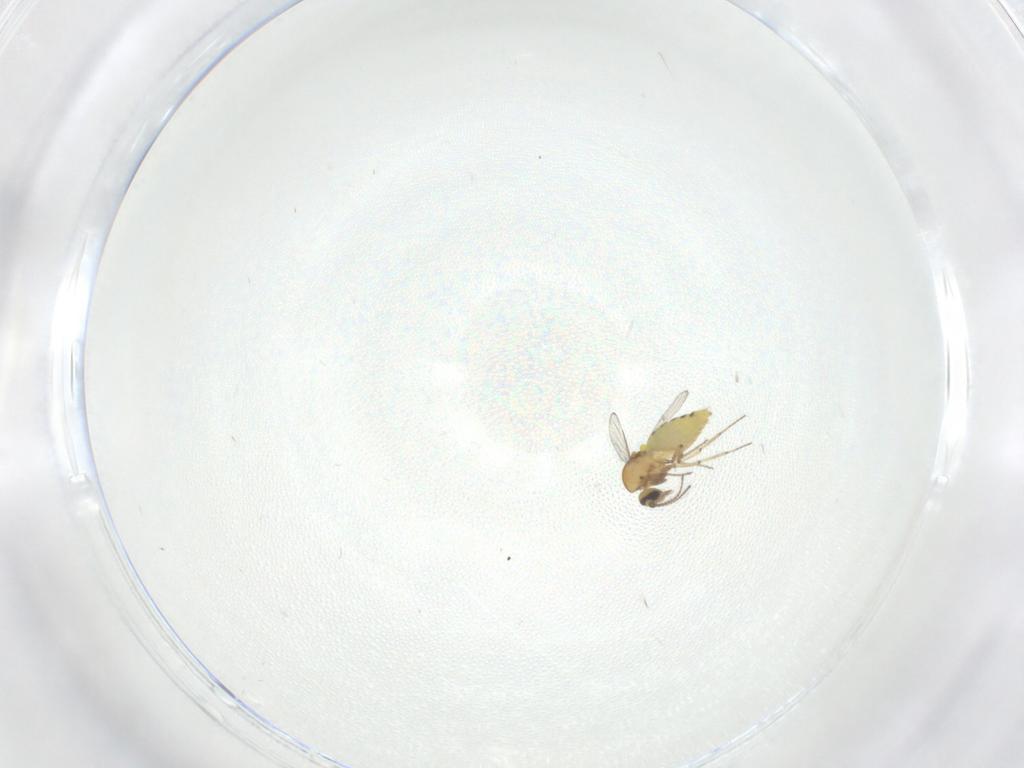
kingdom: Animalia
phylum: Arthropoda
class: Insecta
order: Diptera
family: Ceratopogonidae
